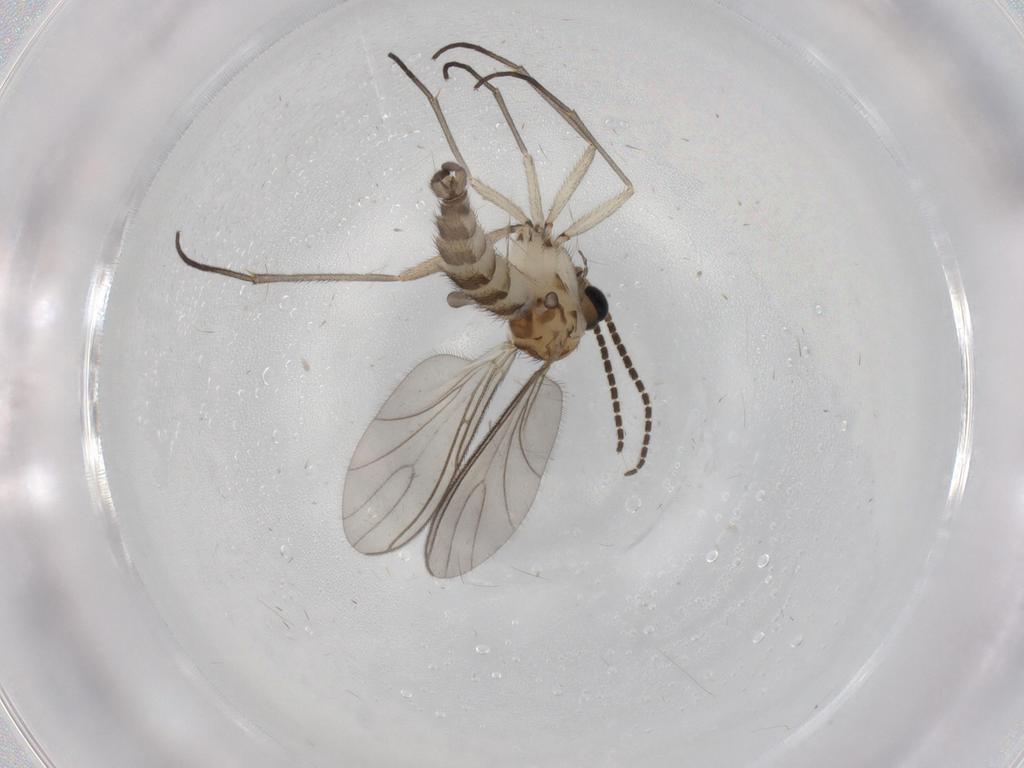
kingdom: Animalia
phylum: Arthropoda
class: Insecta
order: Diptera
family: Sciaridae
